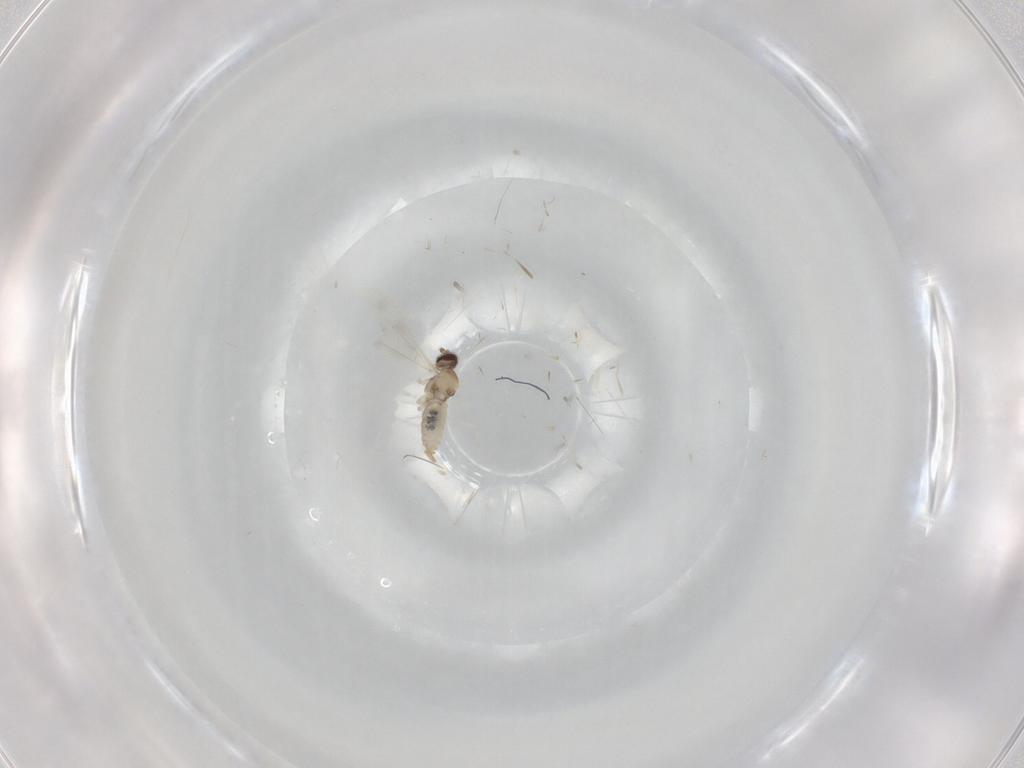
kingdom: Animalia
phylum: Arthropoda
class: Insecta
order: Diptera
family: Cecidomyiidae
